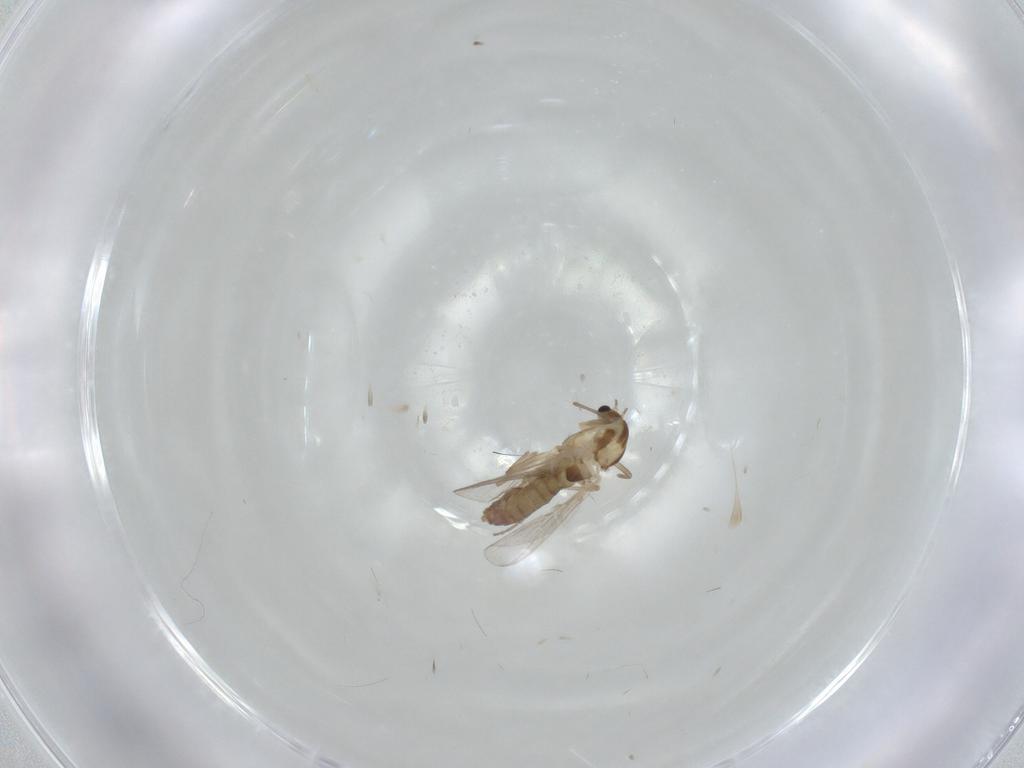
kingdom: Animalia
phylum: Arthropoda
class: Insecta
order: Diptera
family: Chironomidae
